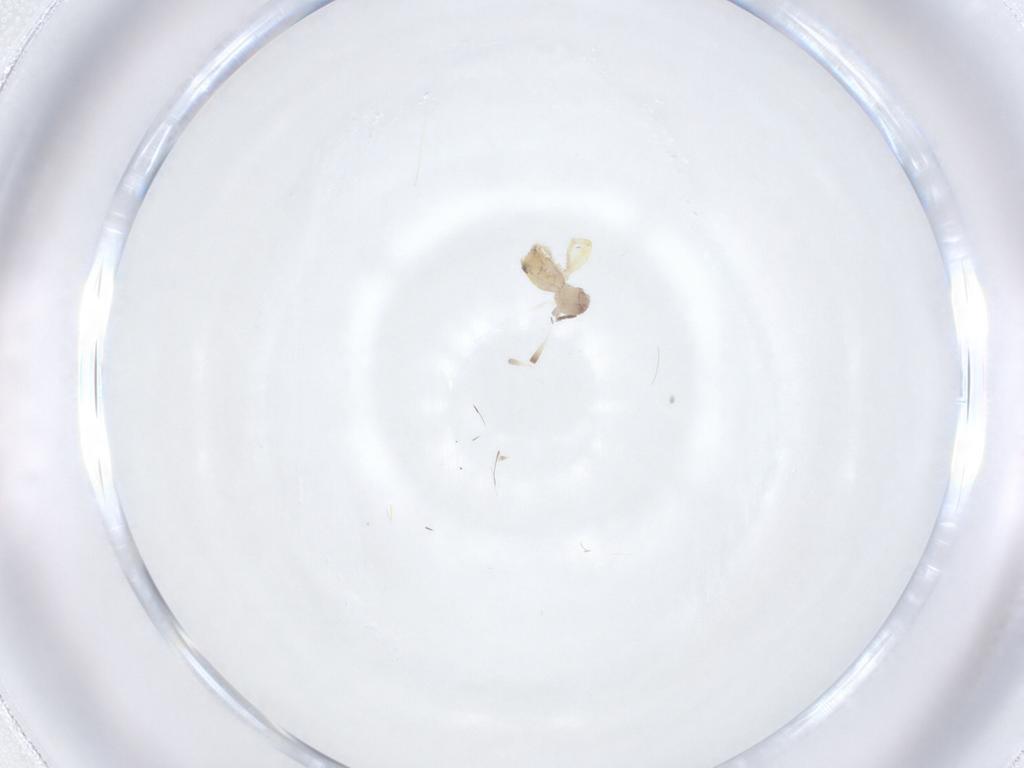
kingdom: Animalia
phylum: Arthropoda
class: Insecta
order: Diptera
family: Sciaridae
